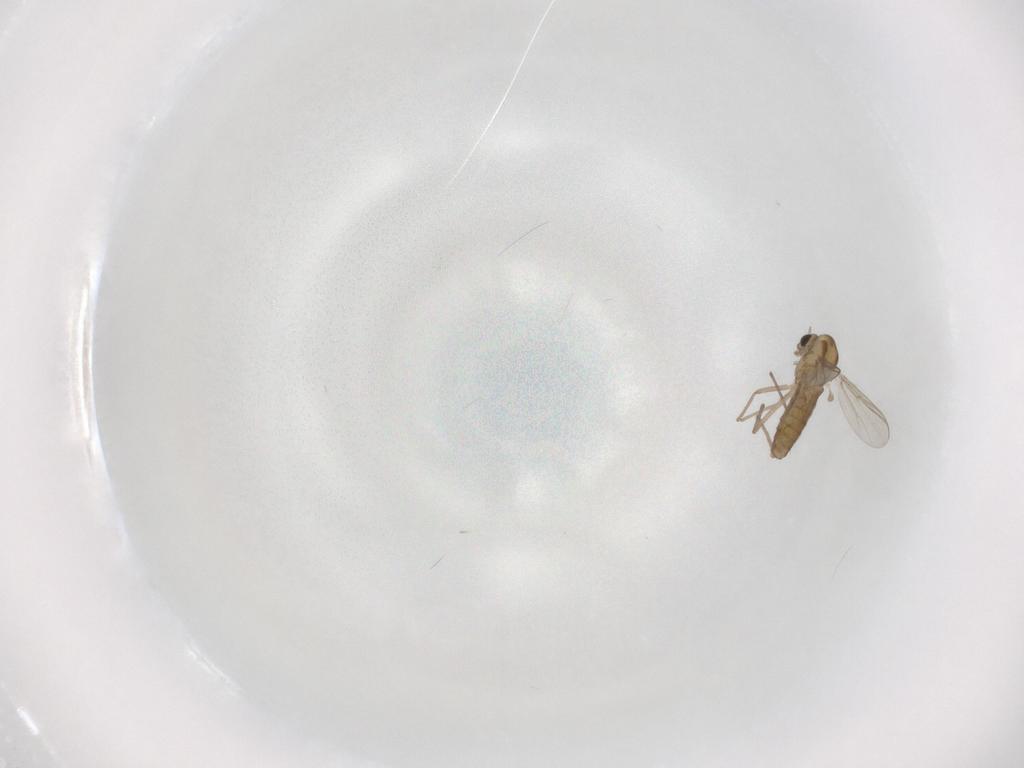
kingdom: Animalia
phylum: Arthropoda
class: Insecta
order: Diptera
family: Chironomidae
